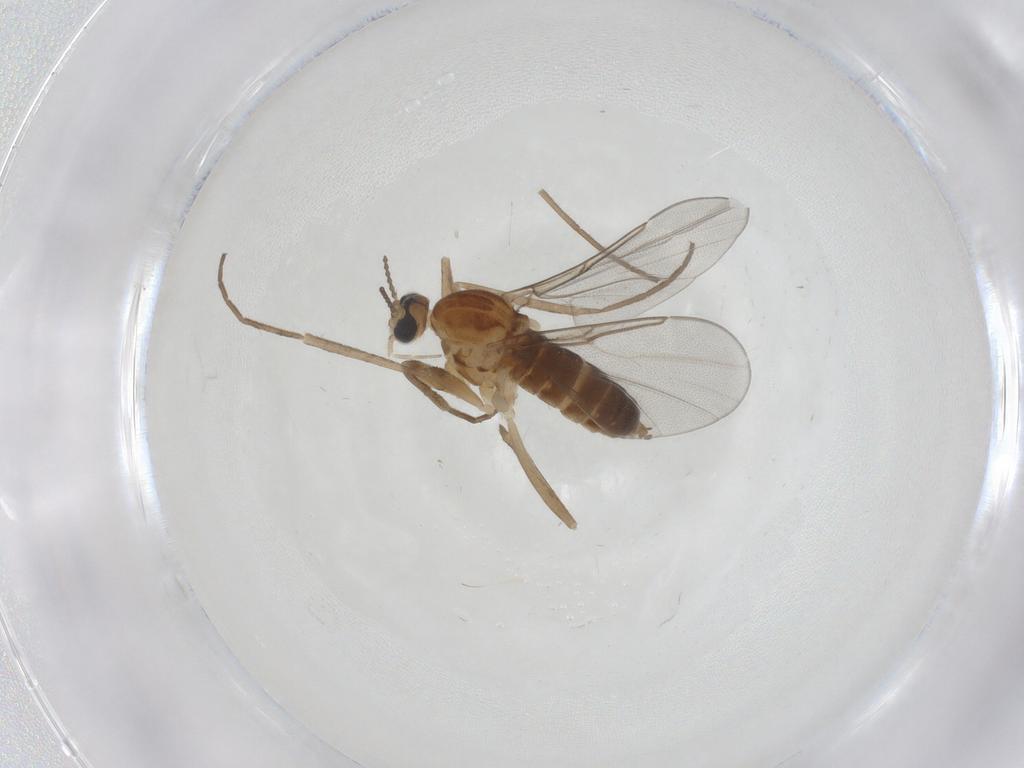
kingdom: Animalia
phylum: Arthropoda
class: Insecta
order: Diptera
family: Cecidomyiidae
